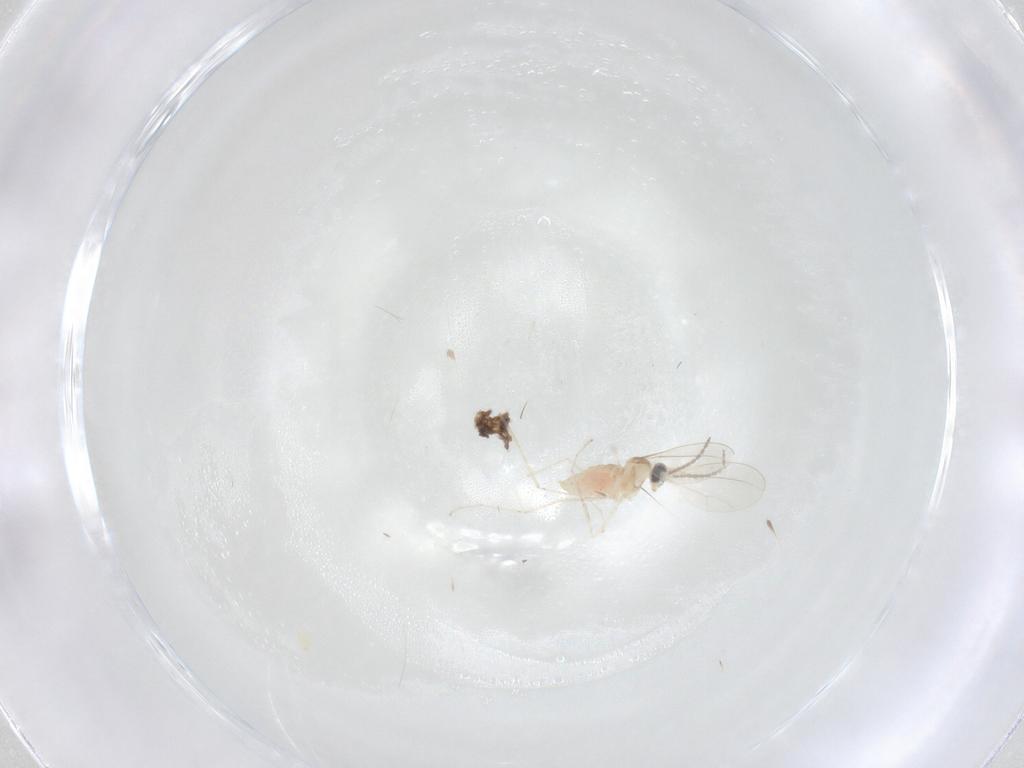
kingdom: Animalia
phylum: Arthropoda
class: Insecta
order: Diptera
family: Cecidomyiidae
